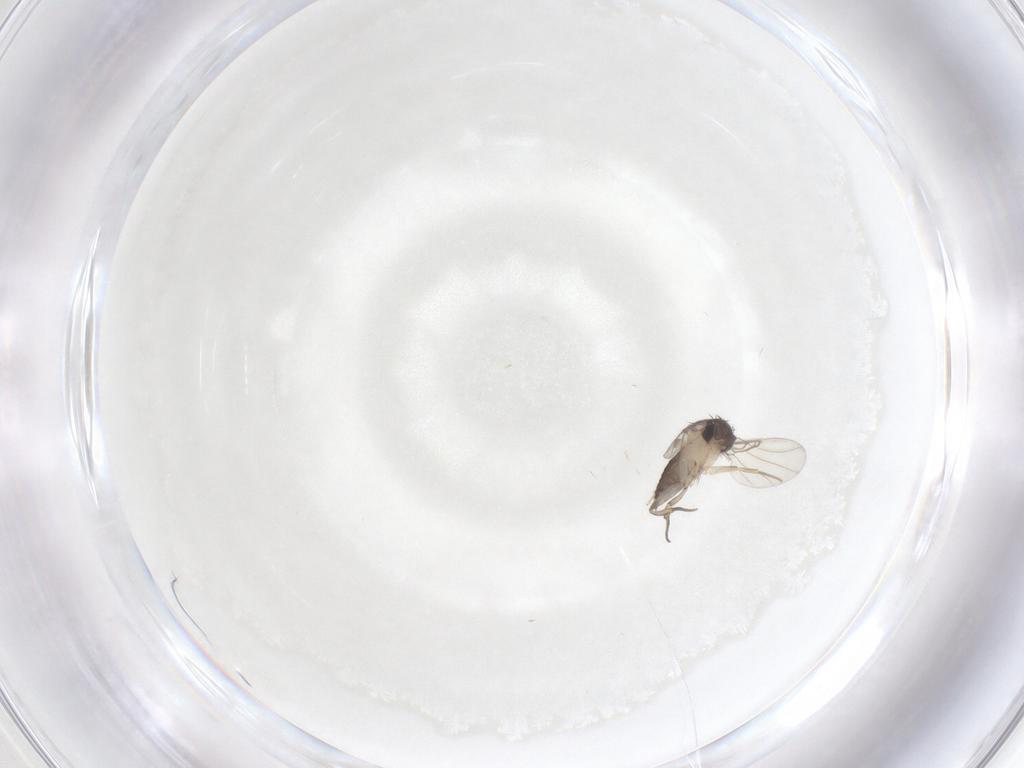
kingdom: Animalia
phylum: Arthropoda
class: Insecta
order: Diptera
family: Phoridae
